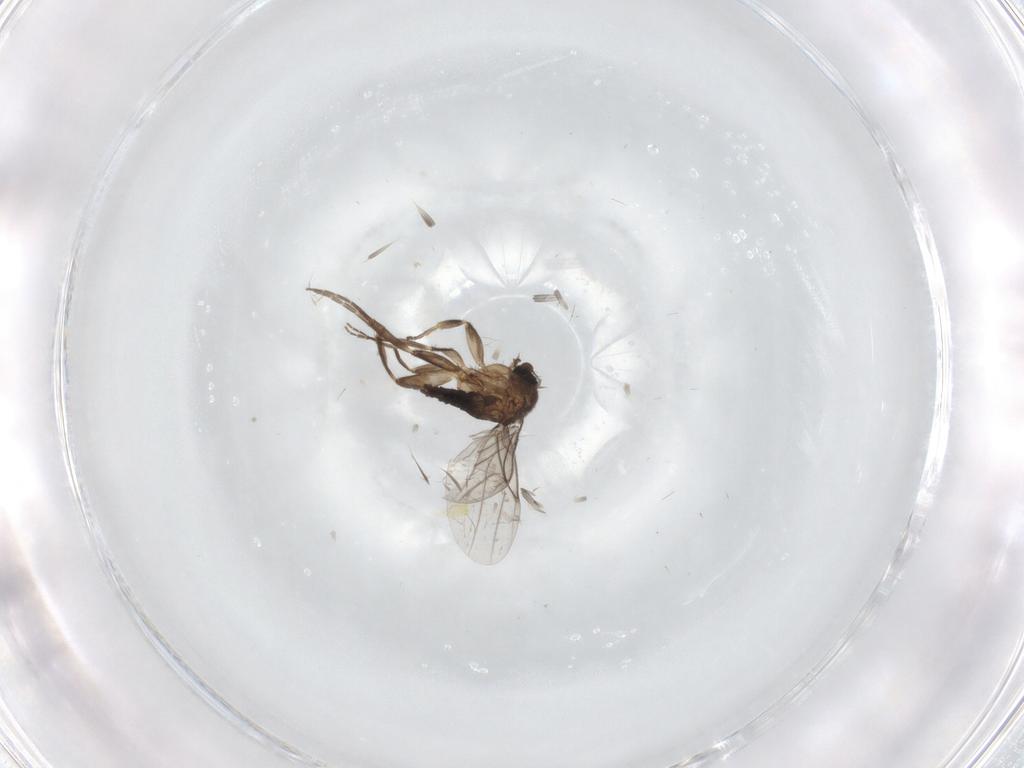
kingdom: Animalia
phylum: Arthropoda
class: Insecta
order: Diptera
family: Phoridae
